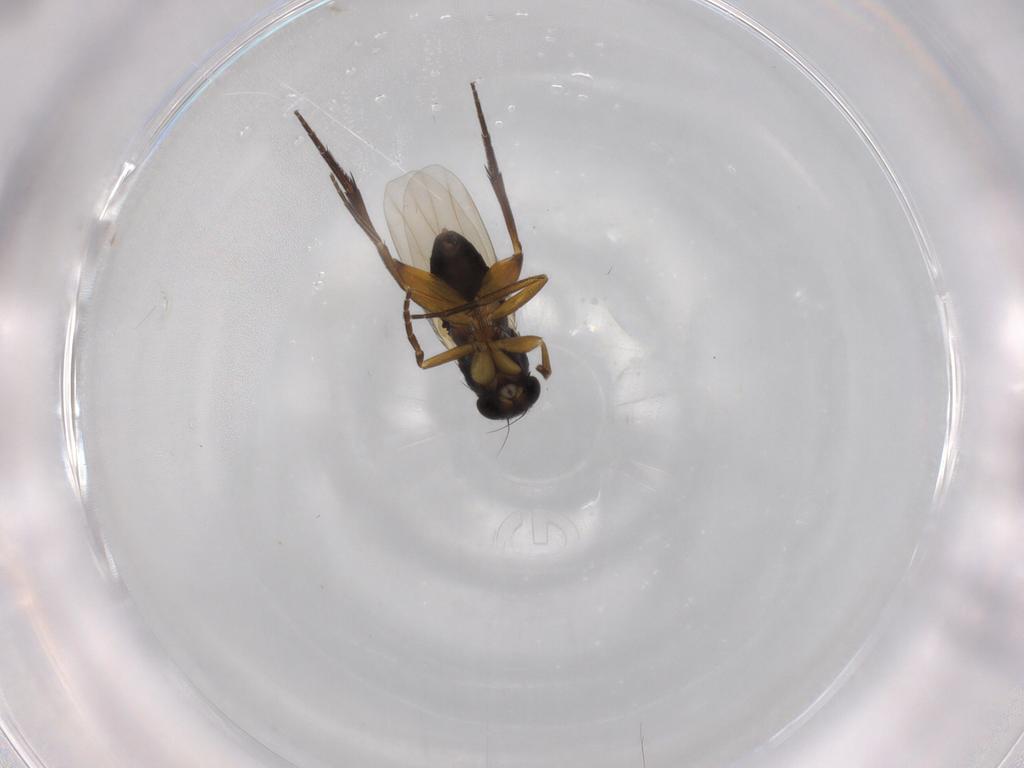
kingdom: Animalia
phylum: Arthropoda
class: Insecta
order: Diptera
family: Phoridae
